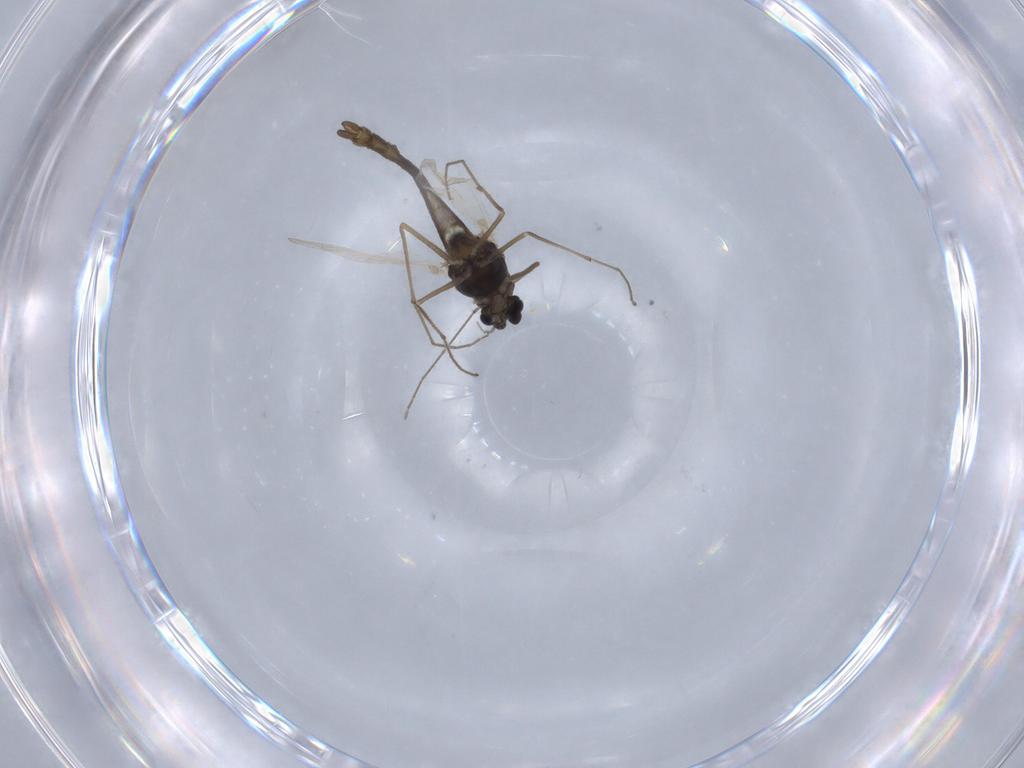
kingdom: Animalia
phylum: Arthropoda
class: Insecta
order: Diptera
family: Chironomidae
